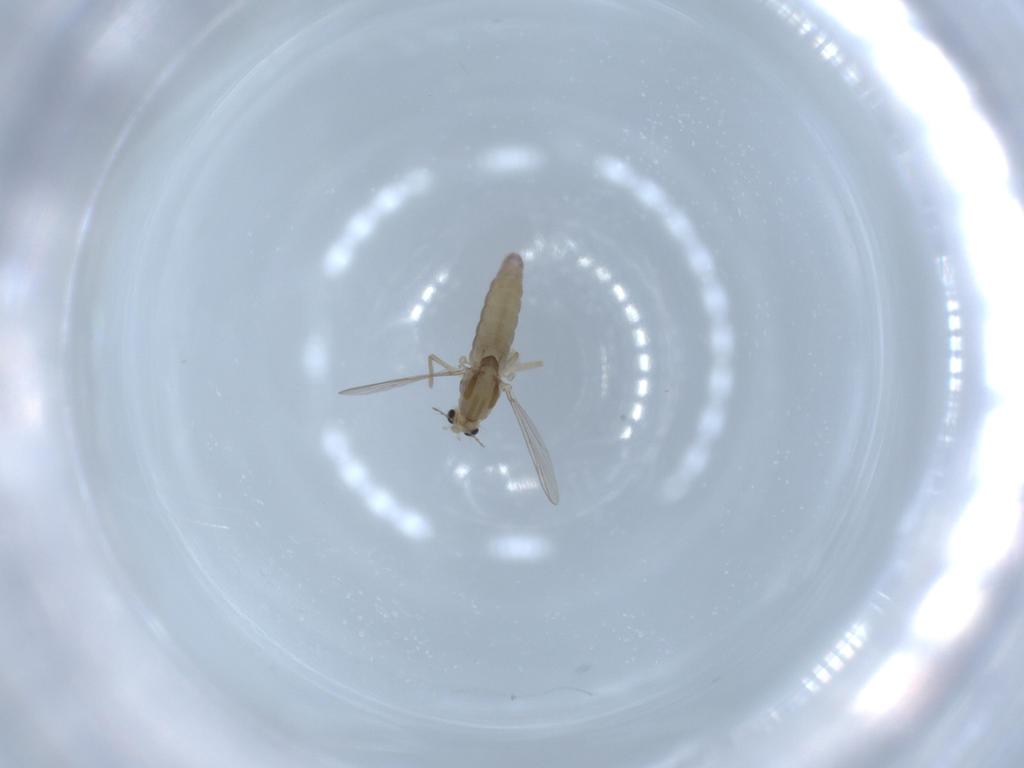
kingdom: Animalia
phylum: Arthropoda
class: Insecta
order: Diptera
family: Chironomidae
